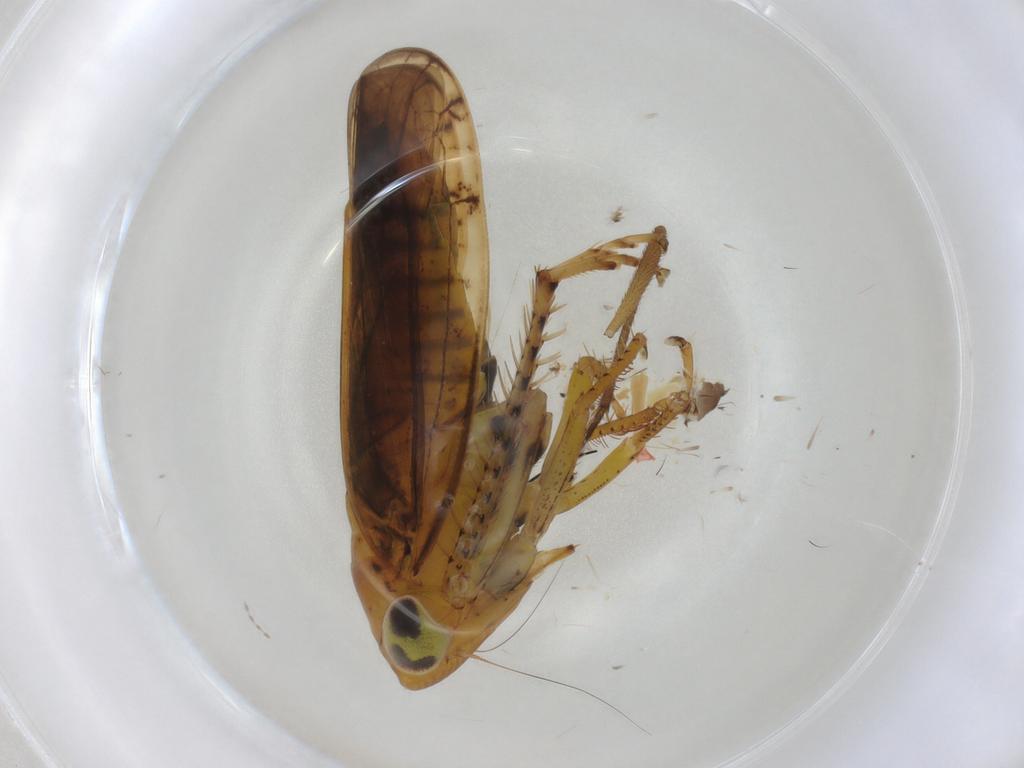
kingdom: Animalia
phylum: Arthropoda
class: Insecta
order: Hemiptera
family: Cicadellidae
